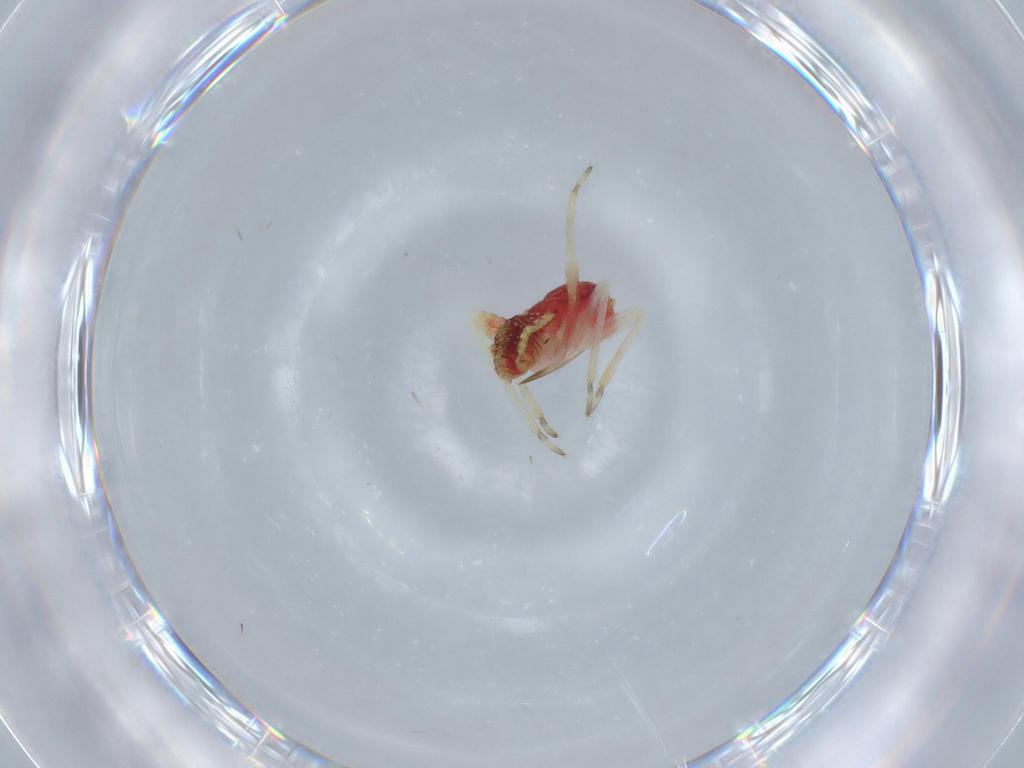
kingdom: Animalia
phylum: Arthropoda
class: Insecta
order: Hemiptera
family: Miridae
